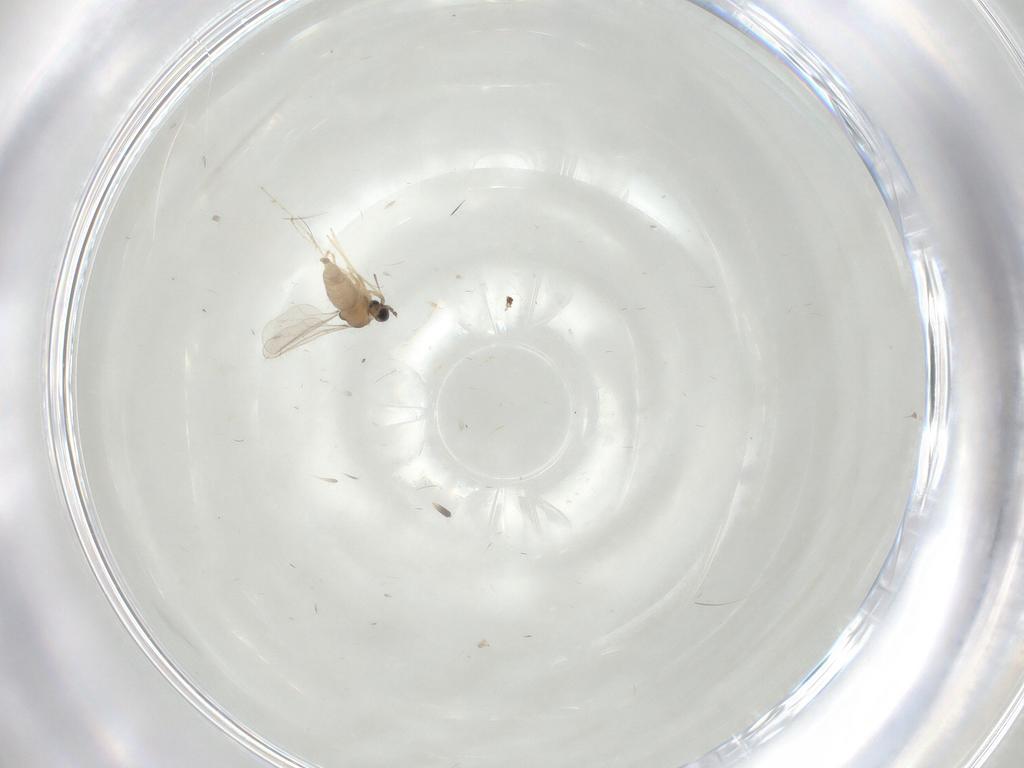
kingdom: Animalia
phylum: Arthropoda
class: Insecta
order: Diptera
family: Cecidomyiidae
